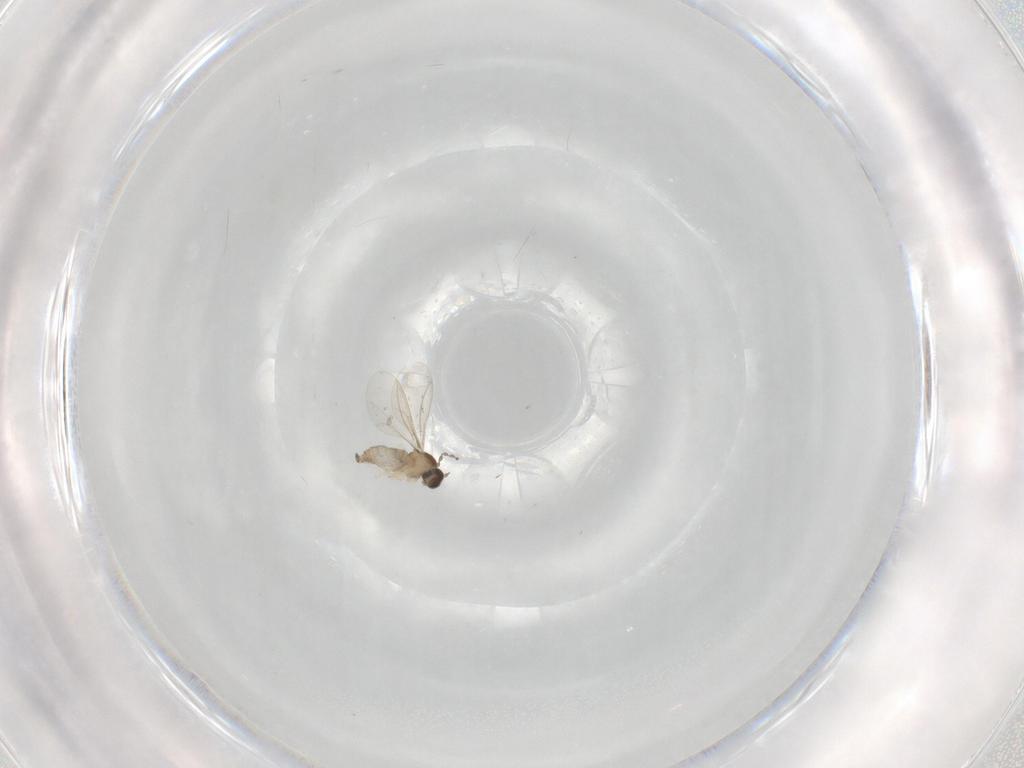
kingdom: Animalia
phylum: Arthropoda
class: Insecta
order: Diptera
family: Cecidomyiidae
